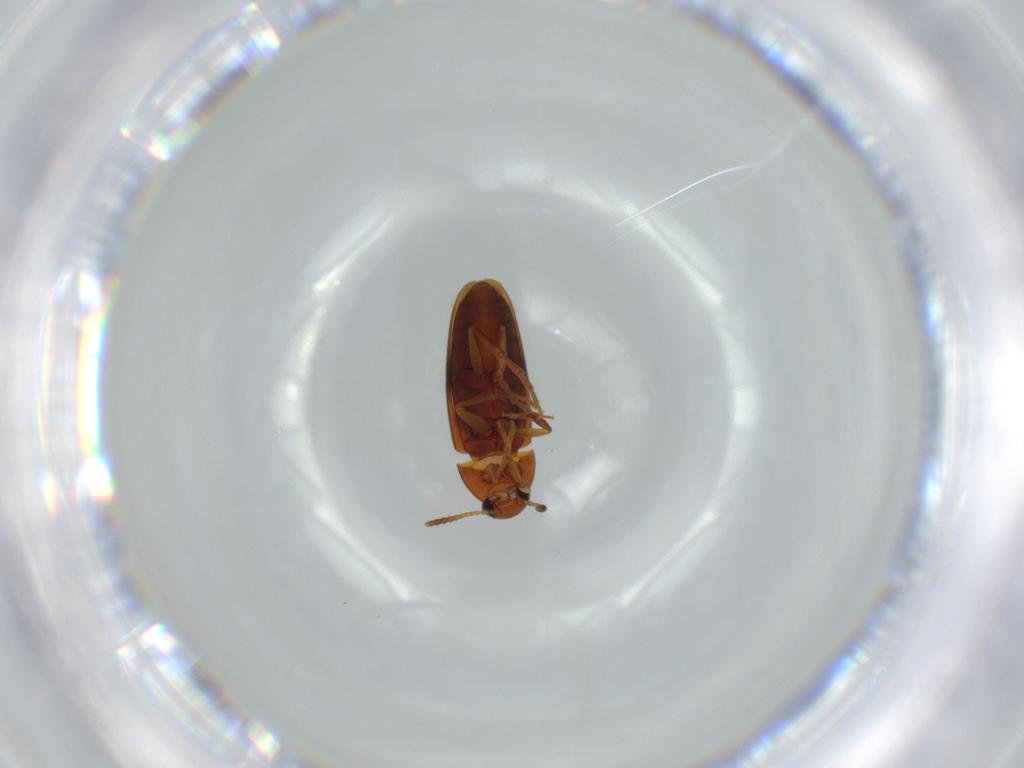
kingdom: Animalia
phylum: Arthropoda
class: Insecta
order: Coleoptera
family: Scraptiidae
